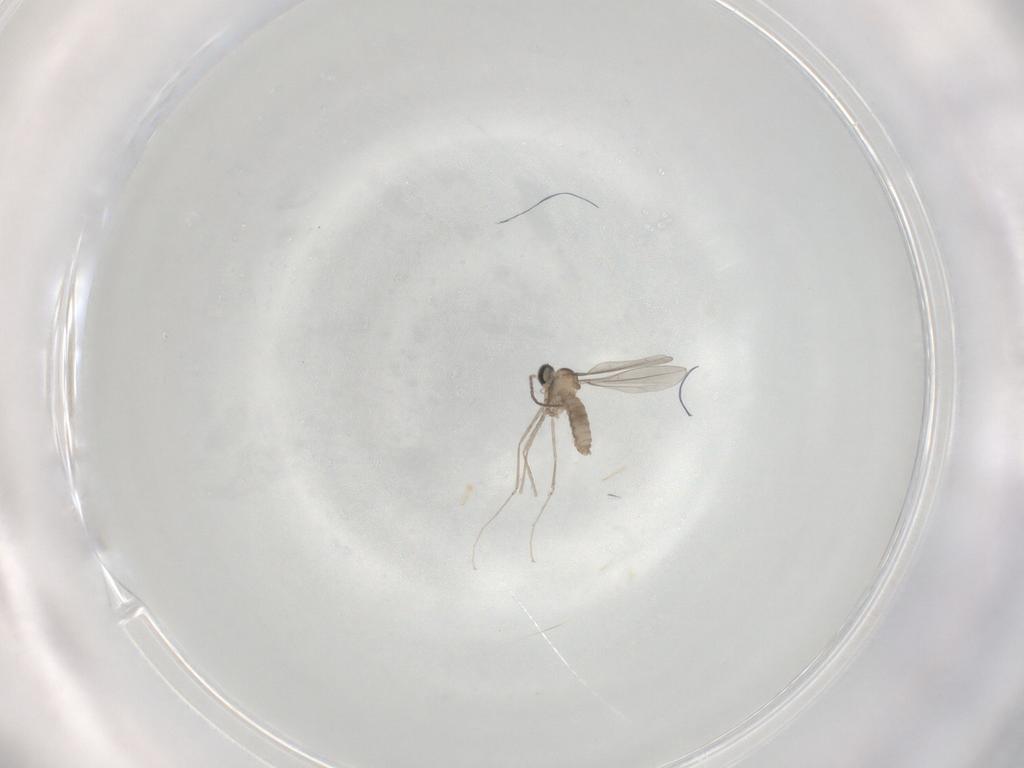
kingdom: Animalia
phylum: Arthropoda
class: Insecta
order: Diptera
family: Cecidomyiidae
